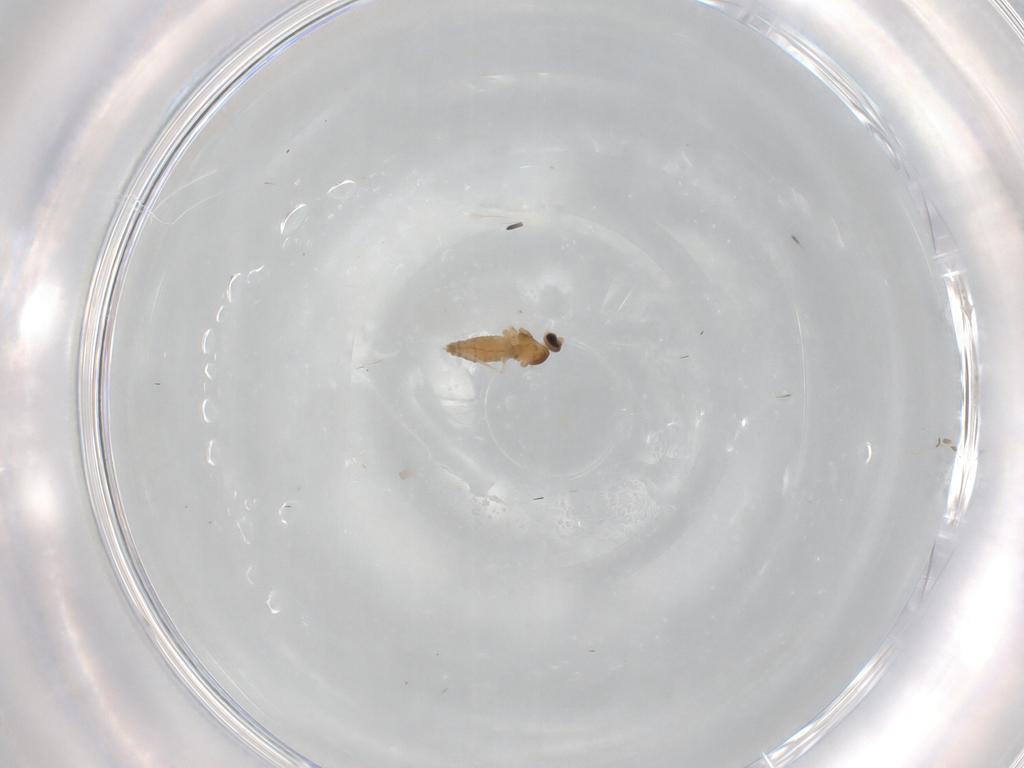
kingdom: Animalia
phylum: Arthropoda
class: Insecta
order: Diptera
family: Sciaridae
